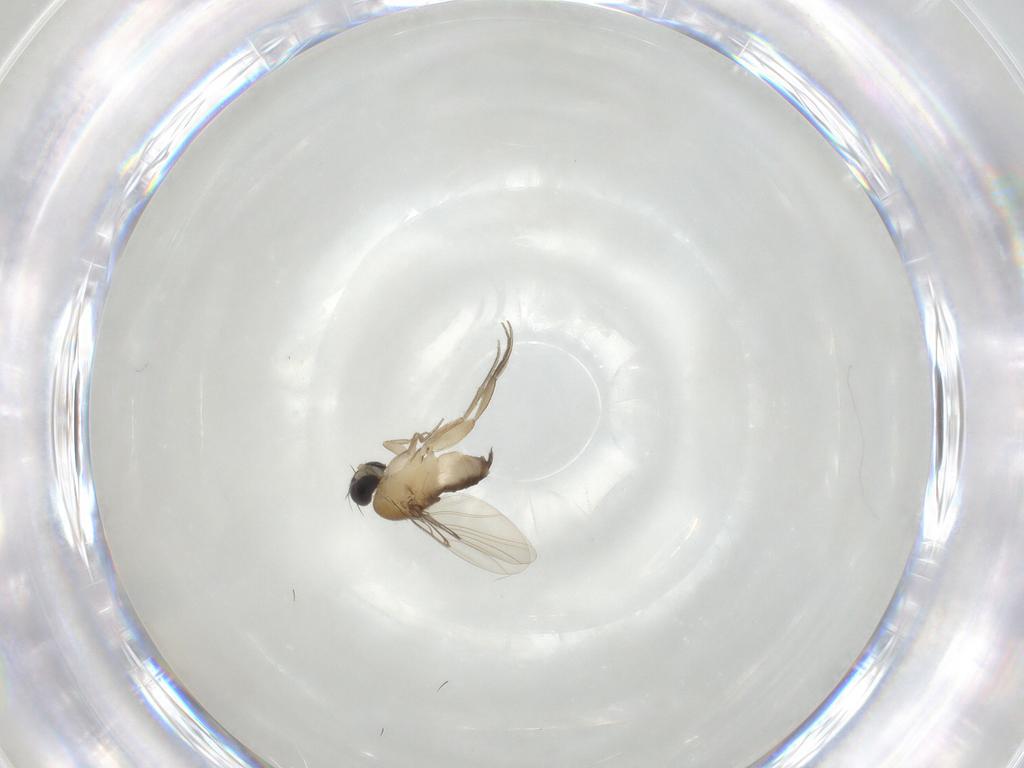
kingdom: Animalia
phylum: Arthropoda
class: Insecta
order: Diptera
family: Phoridae
